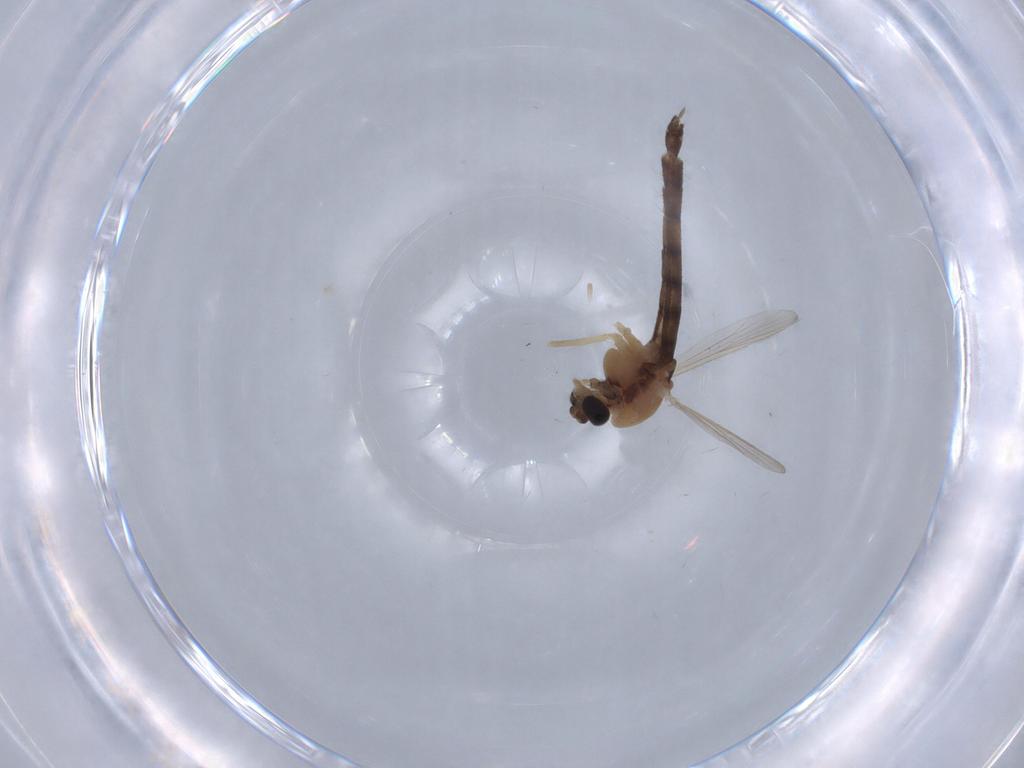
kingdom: Animalia
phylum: Arthropoda
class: Insecta
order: Diptera
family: Chironomidae
